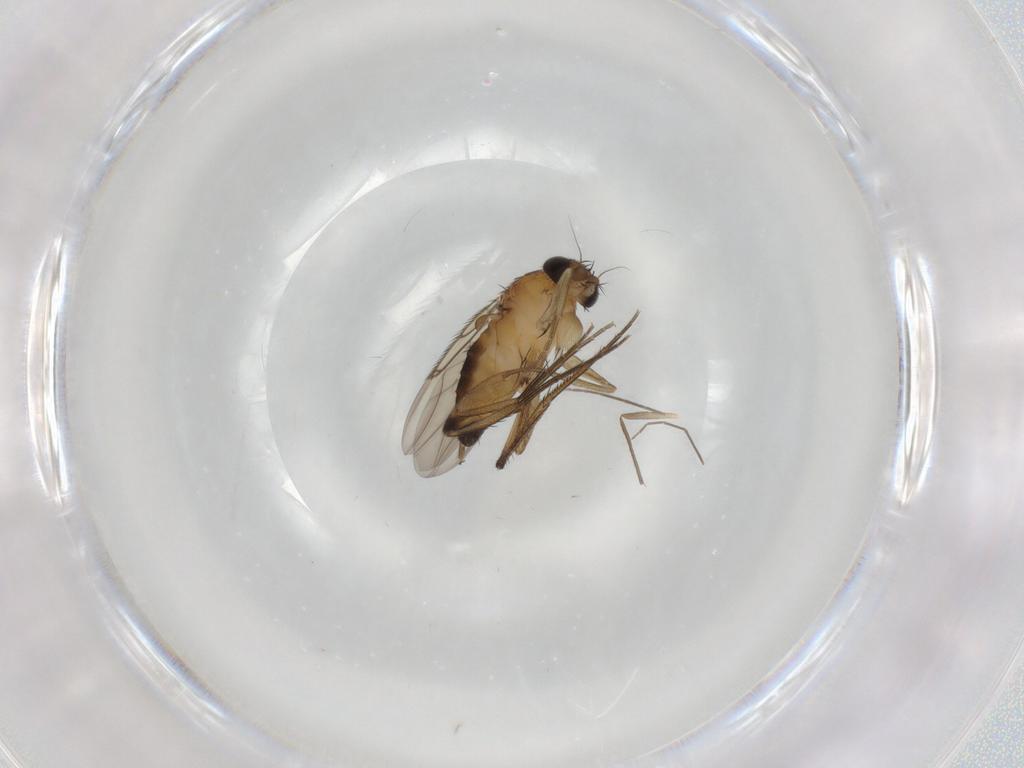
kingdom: Animalia
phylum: Arthropoda
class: Insecta
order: Diptera
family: Phoridae
